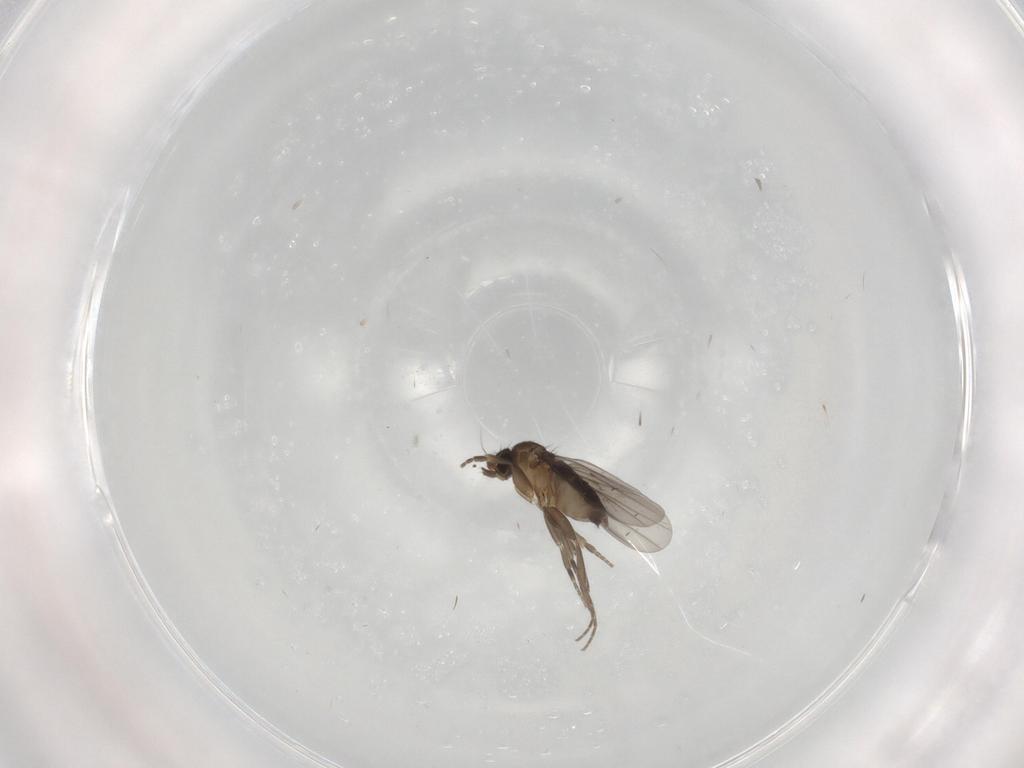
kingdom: Animalia
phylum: Arthropoda
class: Insecta
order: Diptera
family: Phoridae
